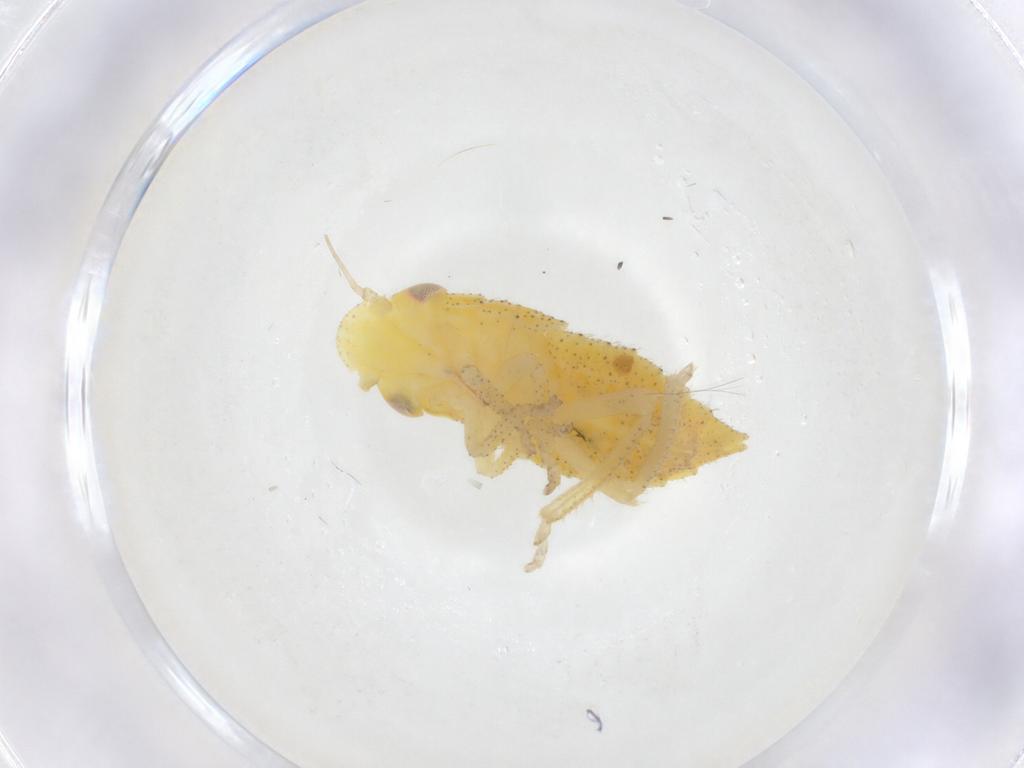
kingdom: Animalia
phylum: Arthropoda
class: Insecta
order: Hemiptera
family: Cicadellidae
